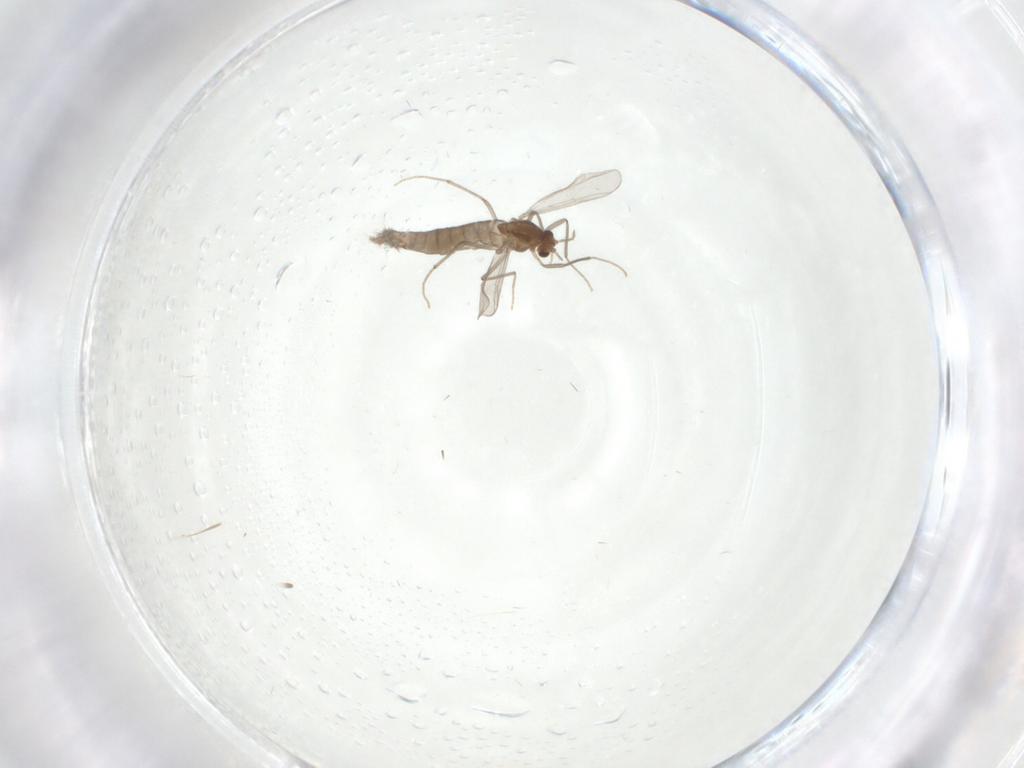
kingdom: Animalia
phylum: Arthropoda
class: Insecta
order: Diptera
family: Chironomidae
